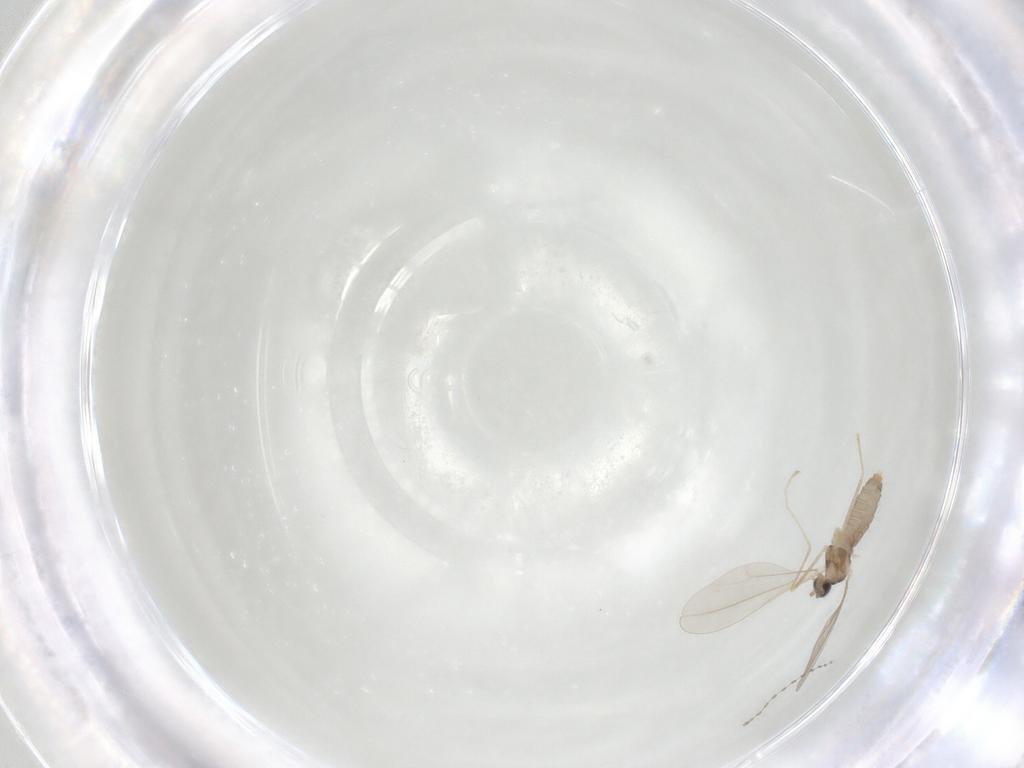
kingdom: Animalia
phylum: Arthropoda
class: Insecta
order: Diptera
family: Cecidomyiidae
